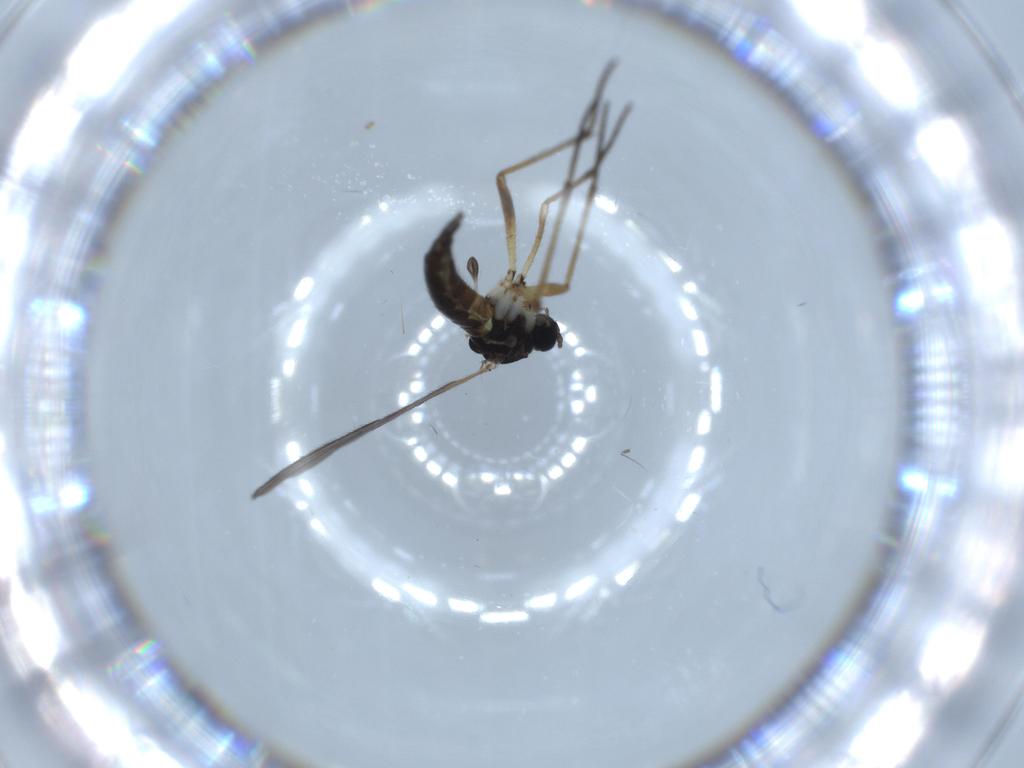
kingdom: Animalia
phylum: Arthropoda
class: Insecta
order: Diptera
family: Sciaridae
